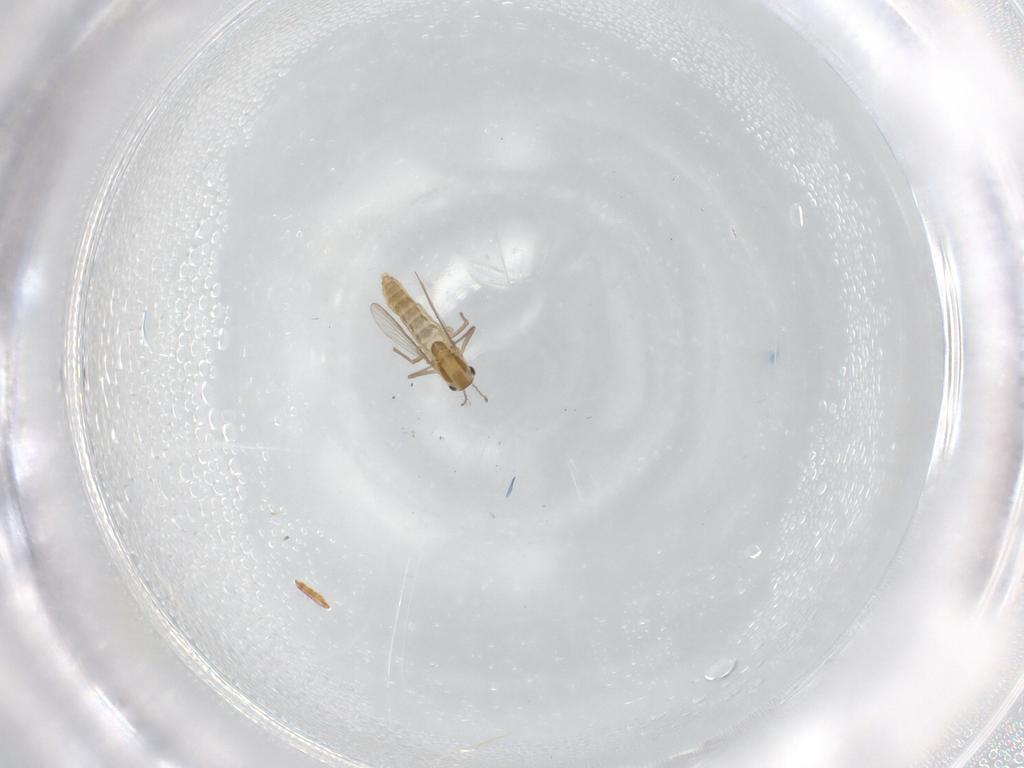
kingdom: Animalia
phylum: Arthropoda
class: Insecta
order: Diptera
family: Chironomidae
